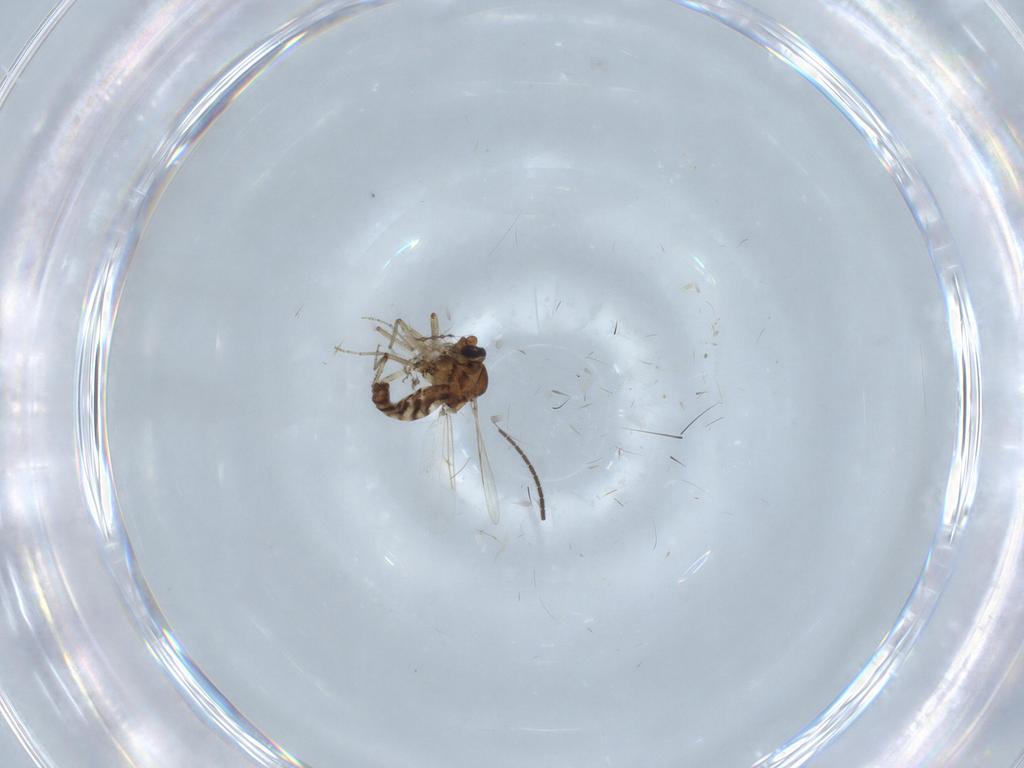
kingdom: Animalia
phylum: Arthropoda
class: Insecta
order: Diptera
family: Ceratopogonidae
